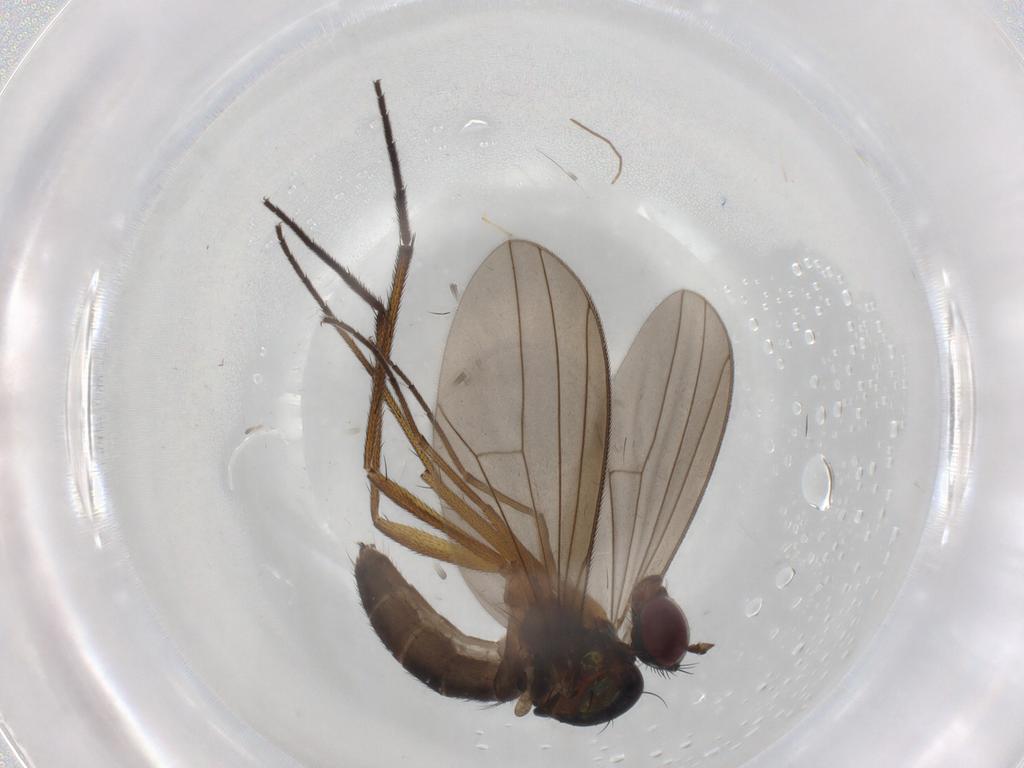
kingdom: Animalia
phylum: Arthropoda
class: Insecta
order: Diptera
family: Dolichopodidae
